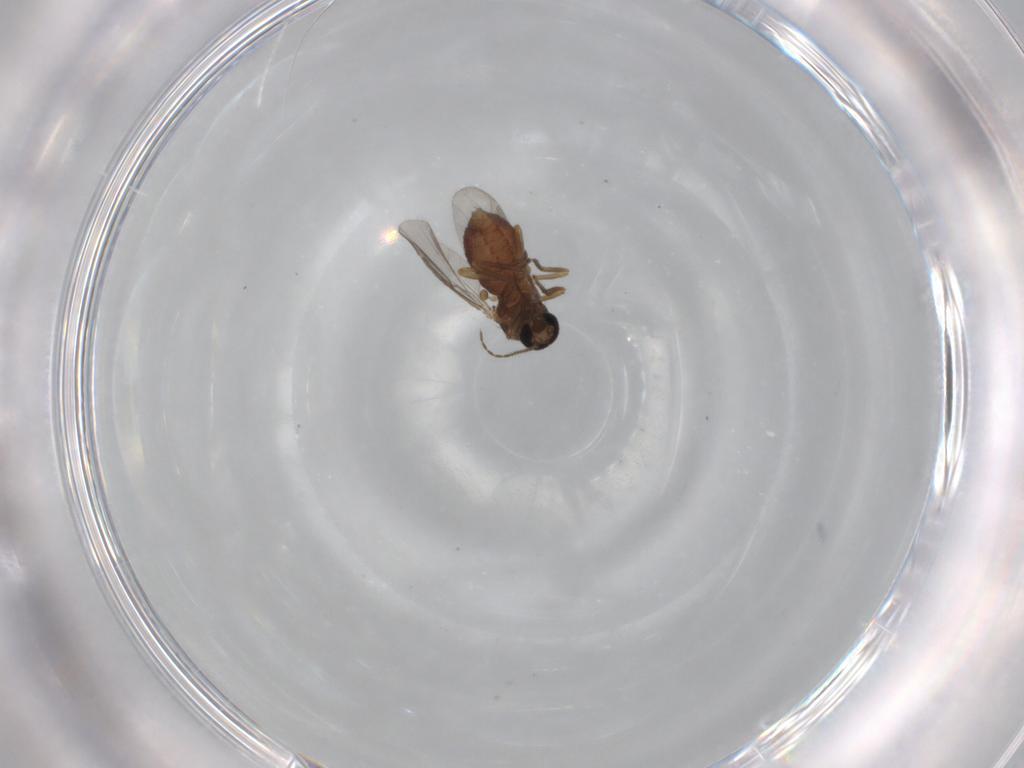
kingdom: Animalia
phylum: Arthropoda
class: Insecta
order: Diptera
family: Ceratopogonidae
